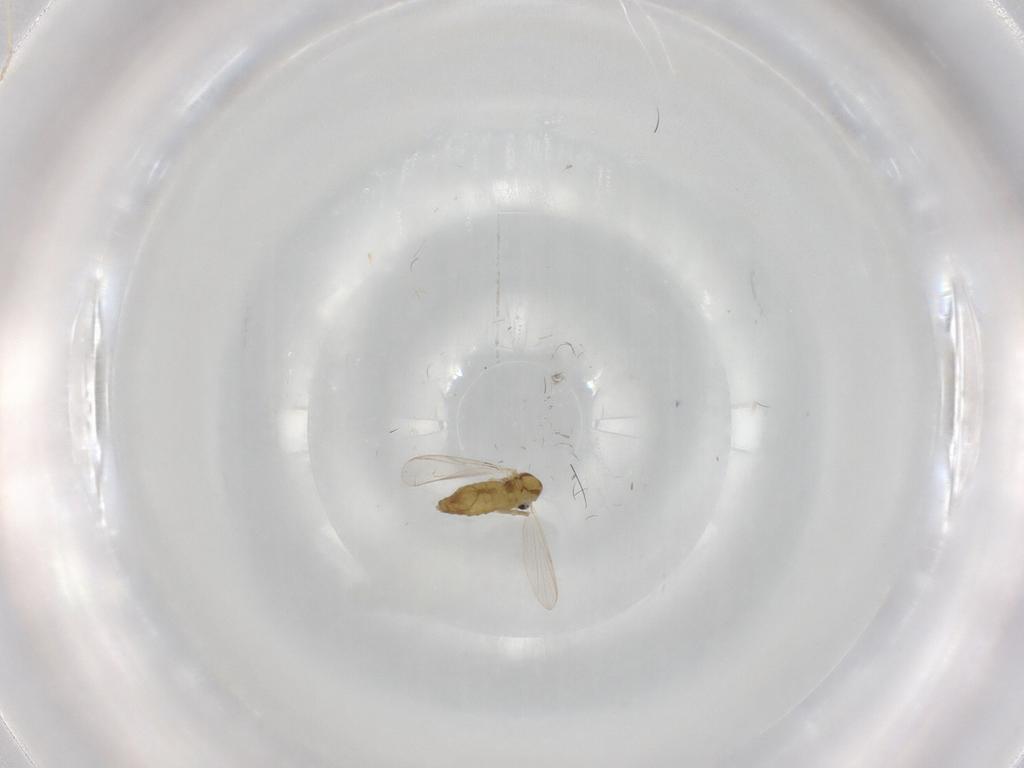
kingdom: Animalia
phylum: Arthropoda
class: Insecta
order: Diptera
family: Chironomidae
